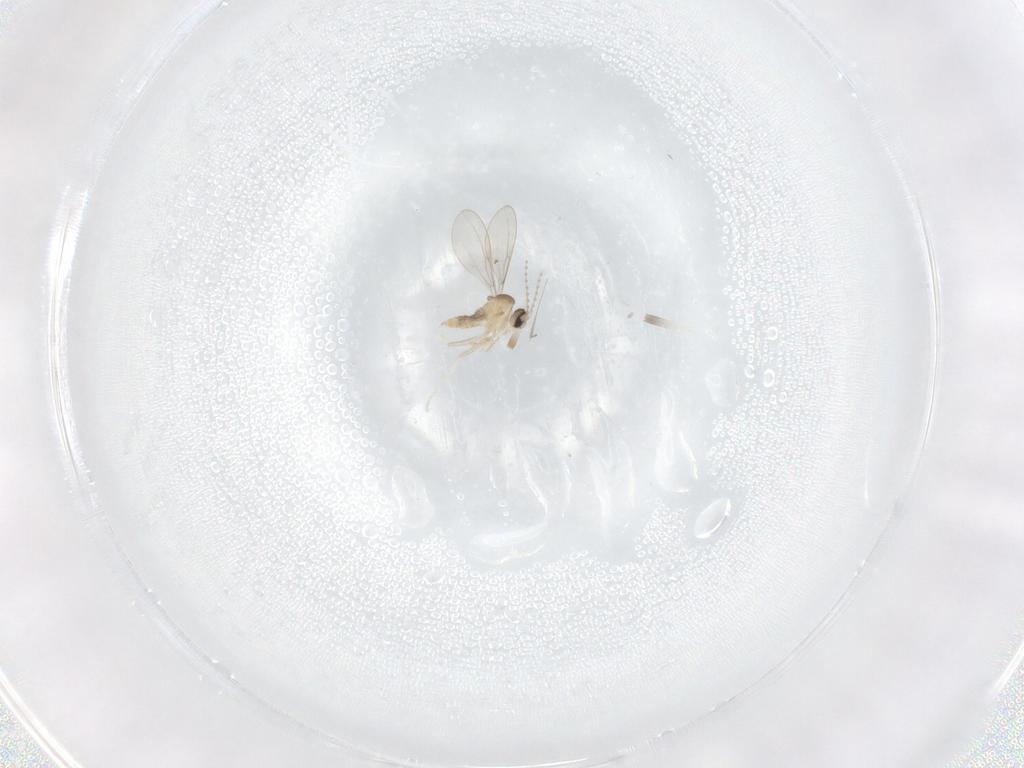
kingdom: Animalia
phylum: Arthropoda
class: Insecta
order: Diptera
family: Cecidomyiidae
